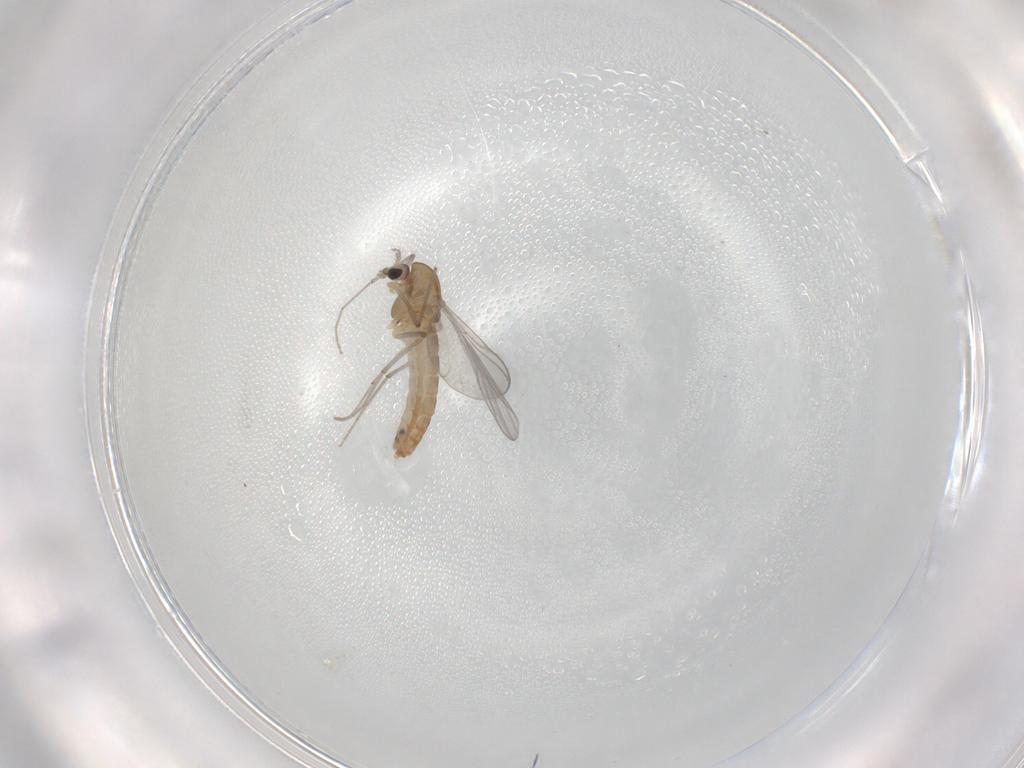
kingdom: Animalia
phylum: Arthropoda
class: Insecta
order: Diptera
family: Chironomidae
